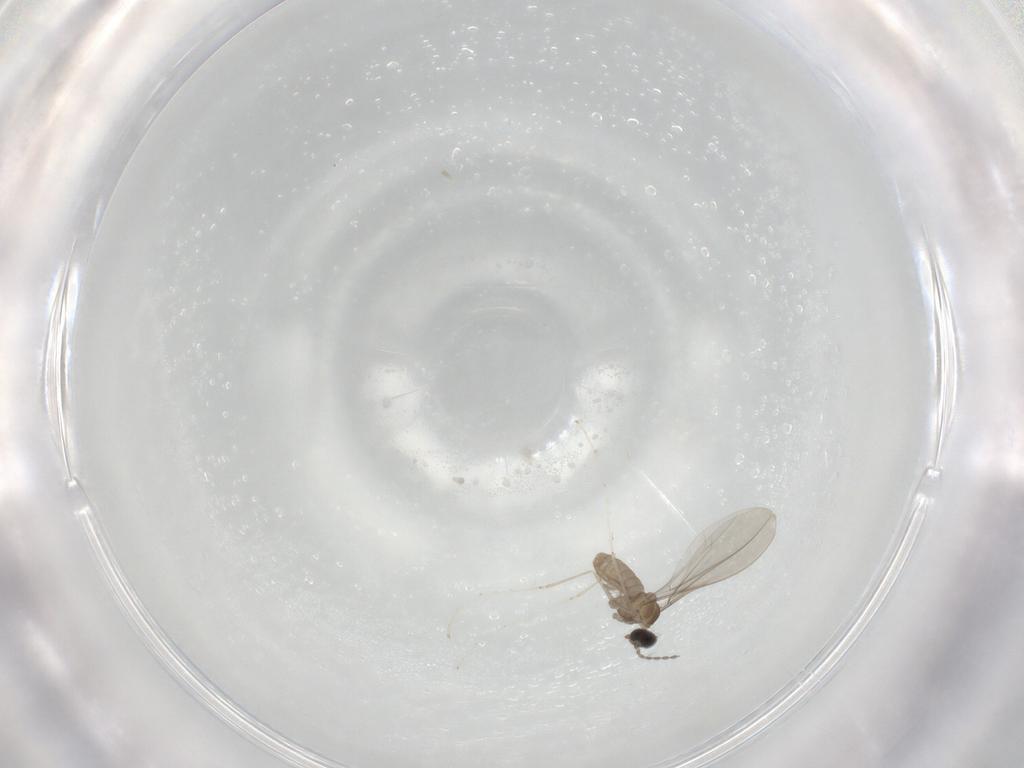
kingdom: Animalia
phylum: Arthropoda
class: Insecta
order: Diptera
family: Cecidomyiidae
